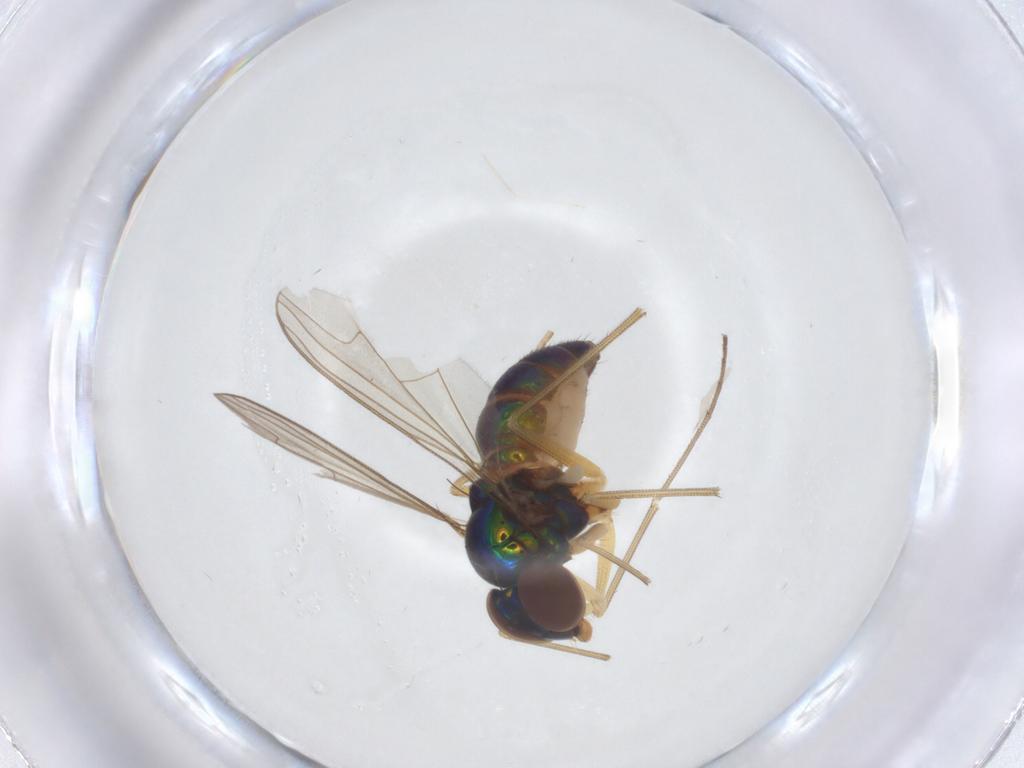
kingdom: Animalia
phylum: Arthropoda
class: Insecta
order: Diptera
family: Dolichopodidae
